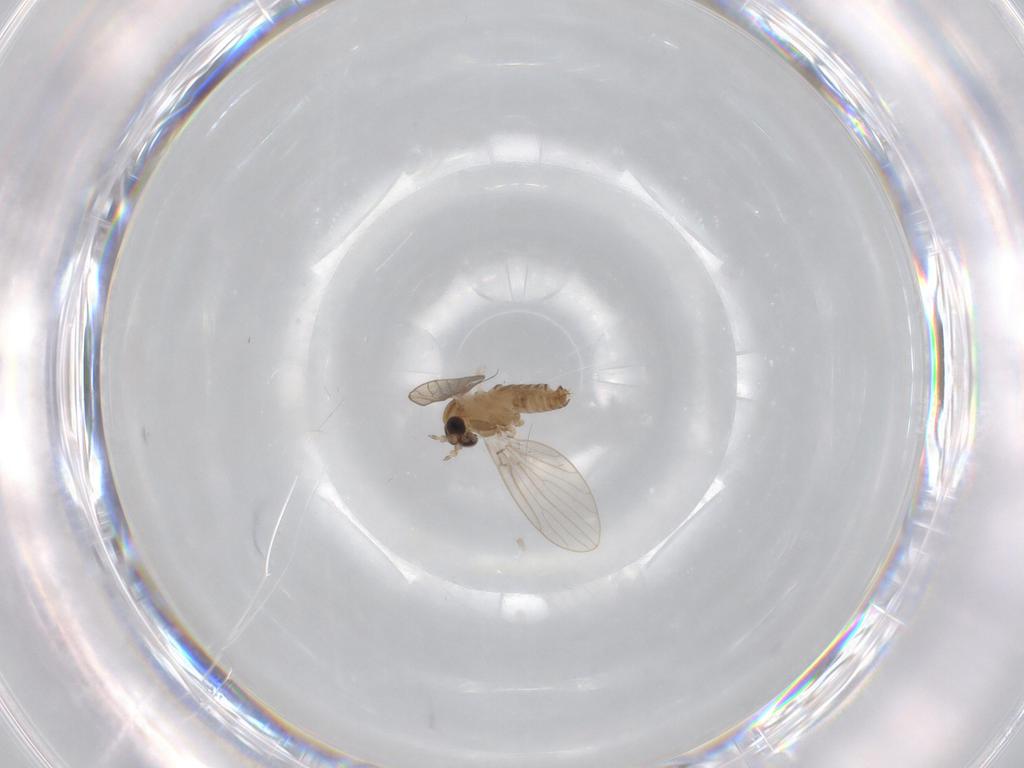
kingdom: Animalia
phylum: Arthropoda
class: Insecta
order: Diptera
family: Psychodidae
